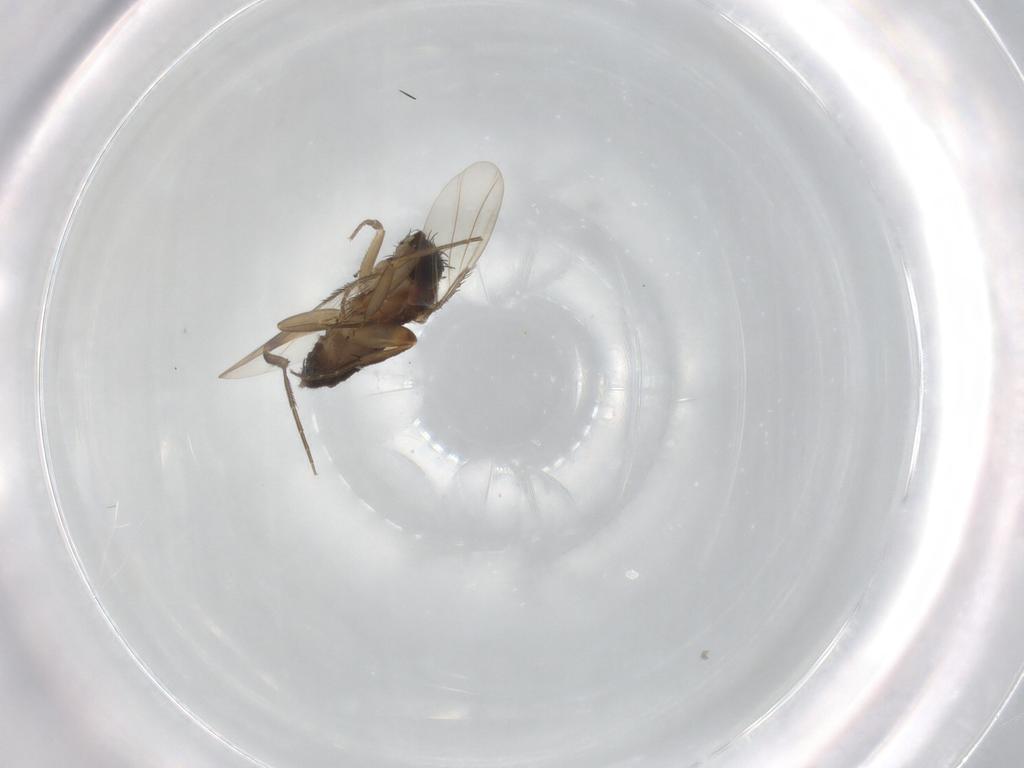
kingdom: Animalia
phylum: Arthropoda
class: Insecta
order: Diptera
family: Phoridae
